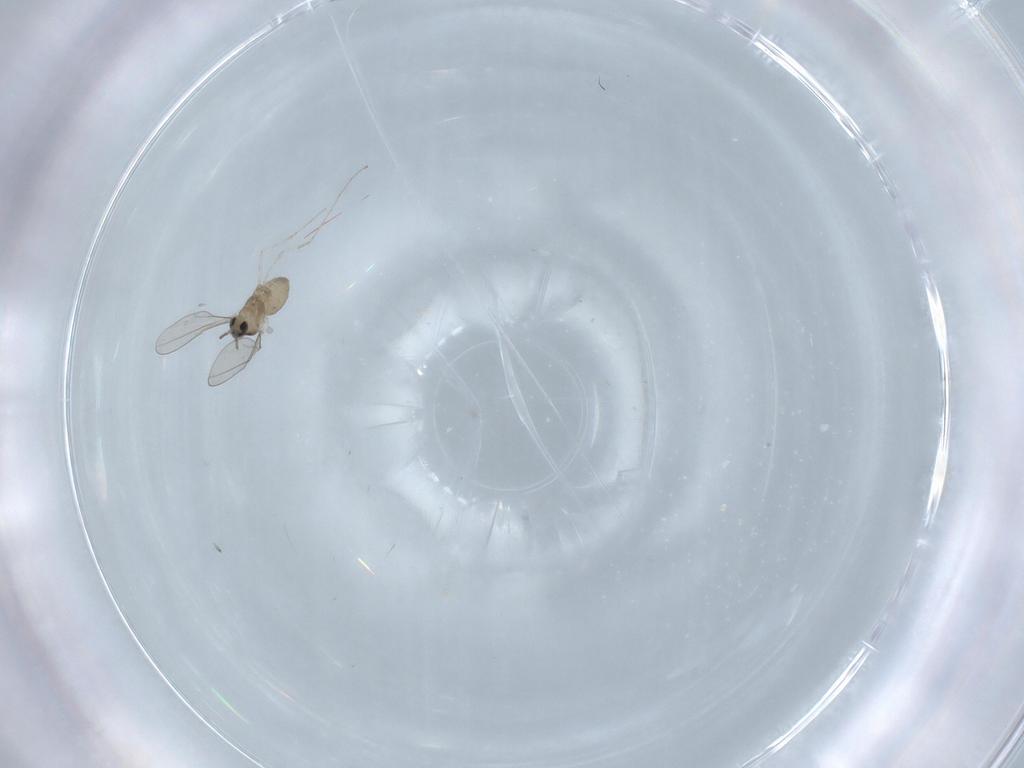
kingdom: Animalia
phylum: Arthropoda
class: Insecta
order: Diptera
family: Cecidomyiidae
